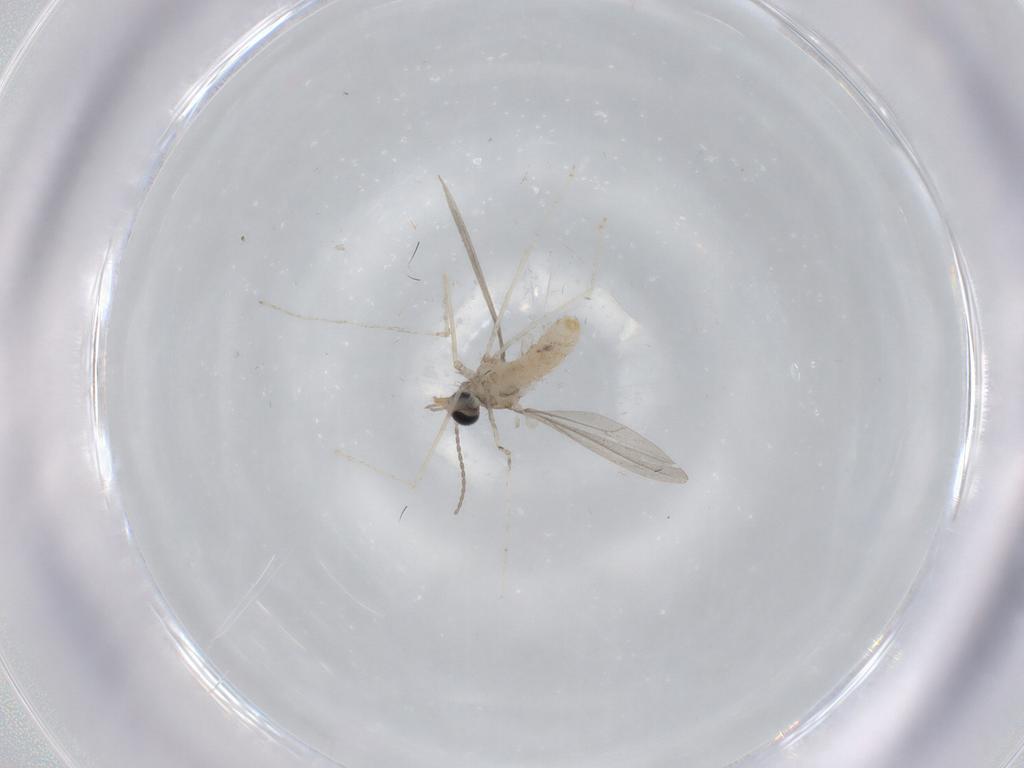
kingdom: Animalia
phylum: Arthropoda
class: Insecta
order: Diptera
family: Cecidomyiidae
